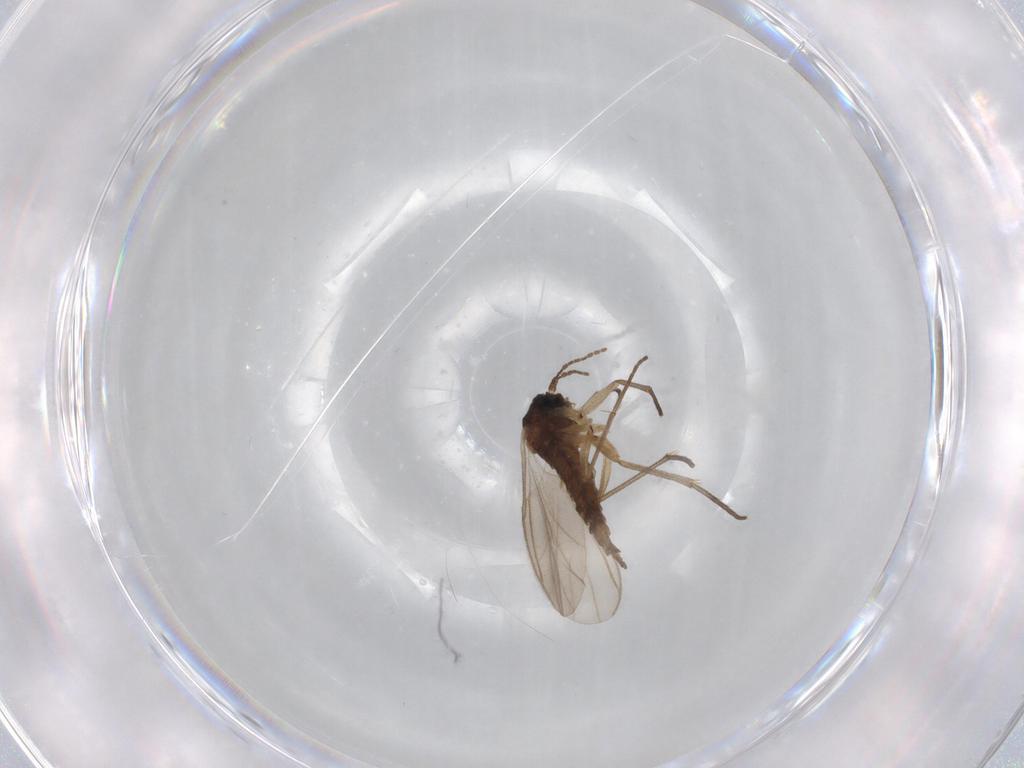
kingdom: Animalia
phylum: Arthropoda
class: Insecta
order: Diptera
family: Sciaridae
